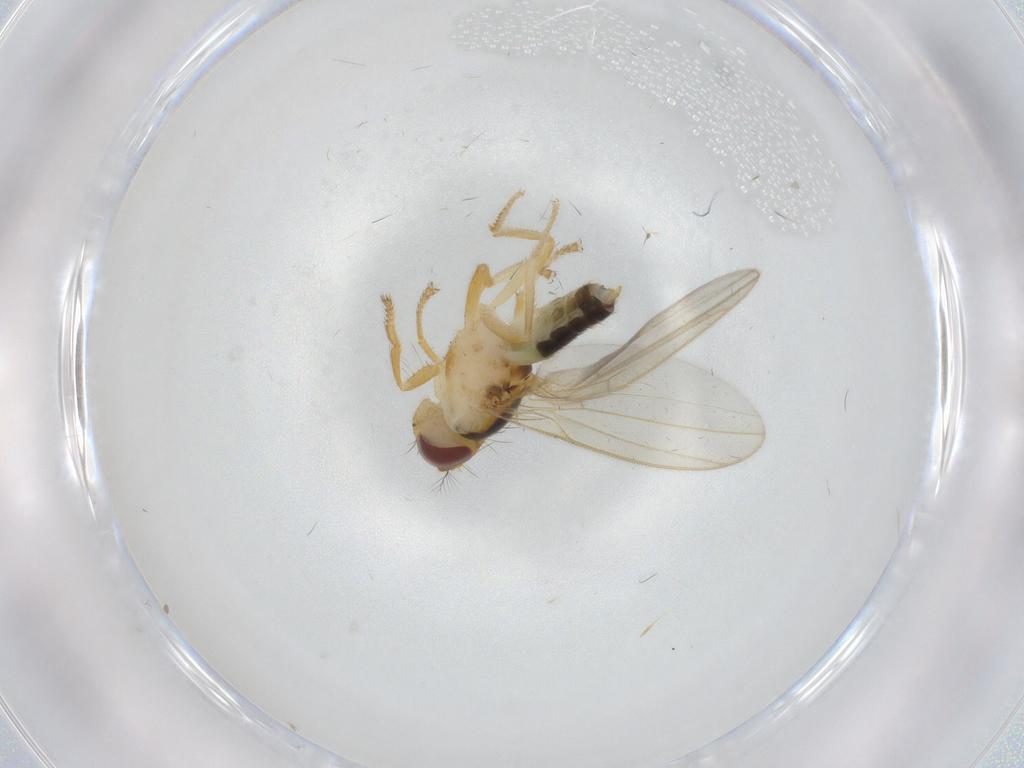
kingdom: Animalia
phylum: Arthropoda
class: Insecta
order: Diptera
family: Periscelididae
